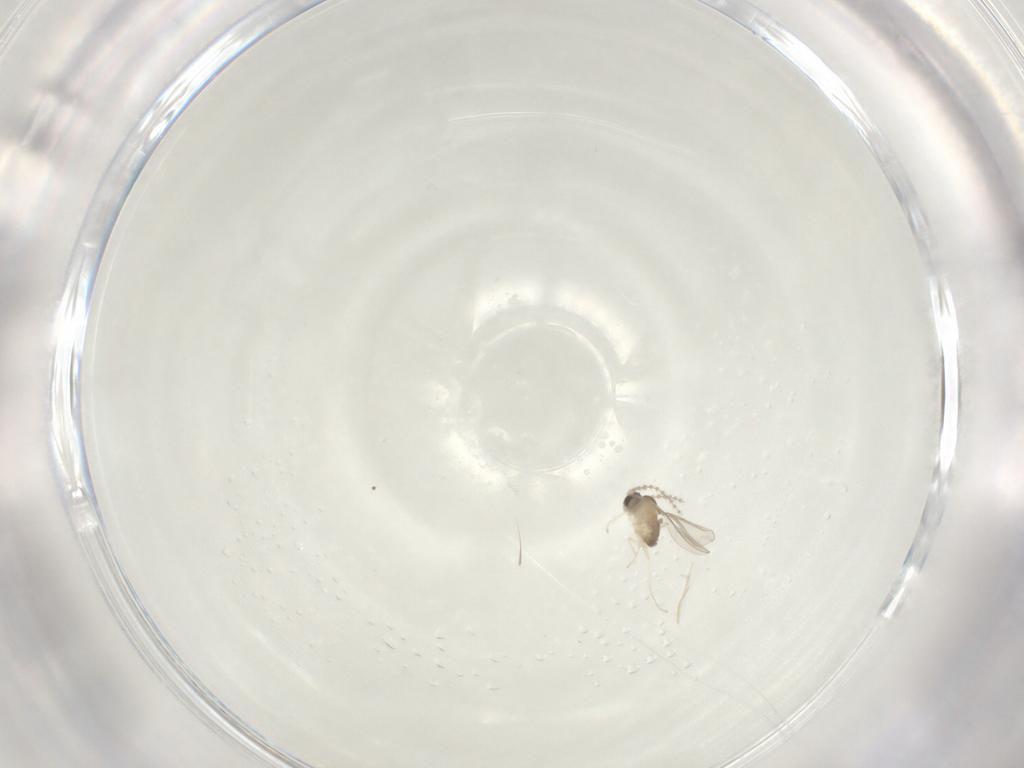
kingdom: Animalia
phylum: Arthropoda
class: Insecta
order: Diptera
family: Cecidomyiidae
